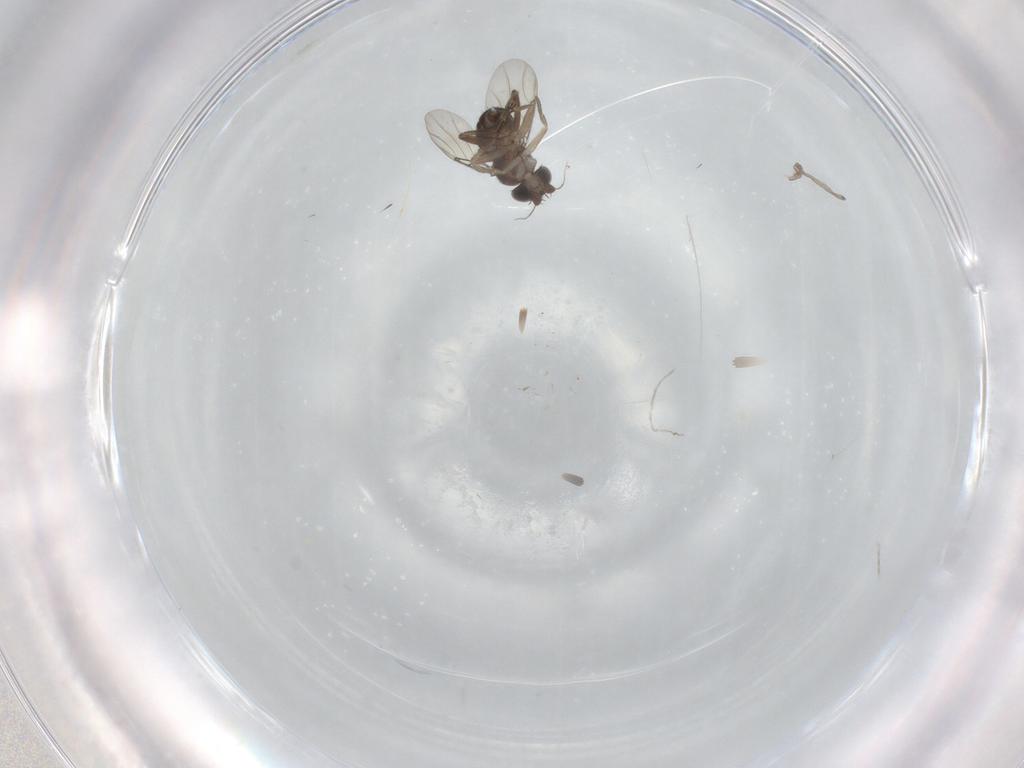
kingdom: Animalia
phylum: Arthropoda
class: Insecta
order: Diptera
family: Phoridae
